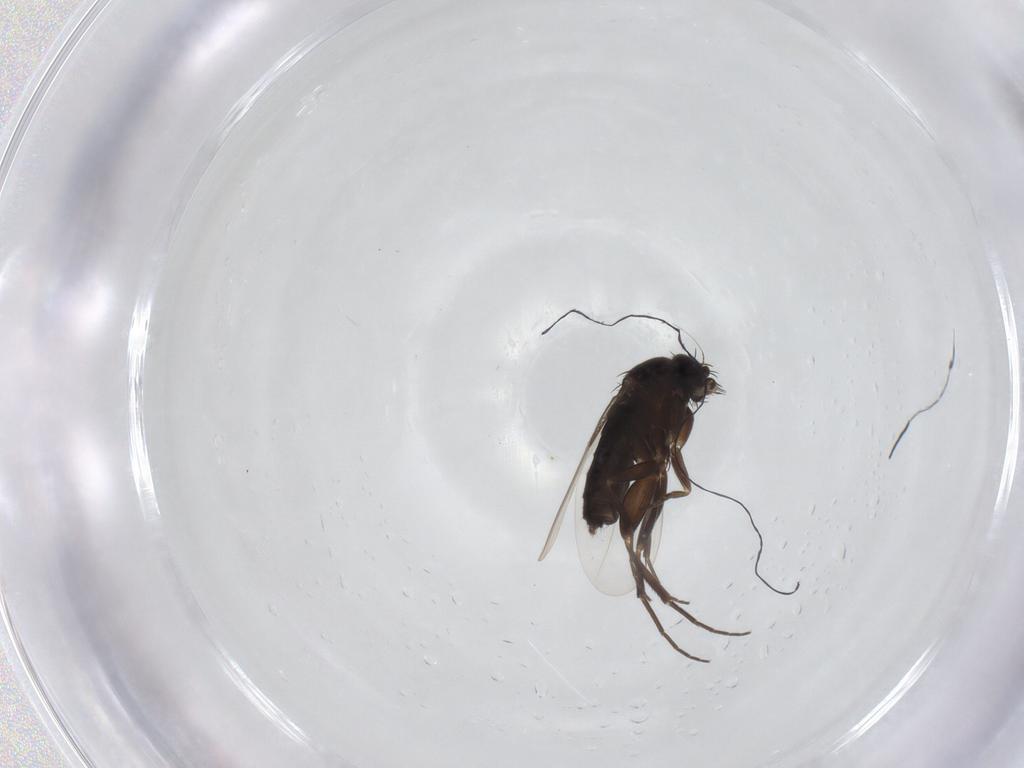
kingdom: Animalia
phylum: Arthropoda
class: Insecta
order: Diptera
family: Phoridae
